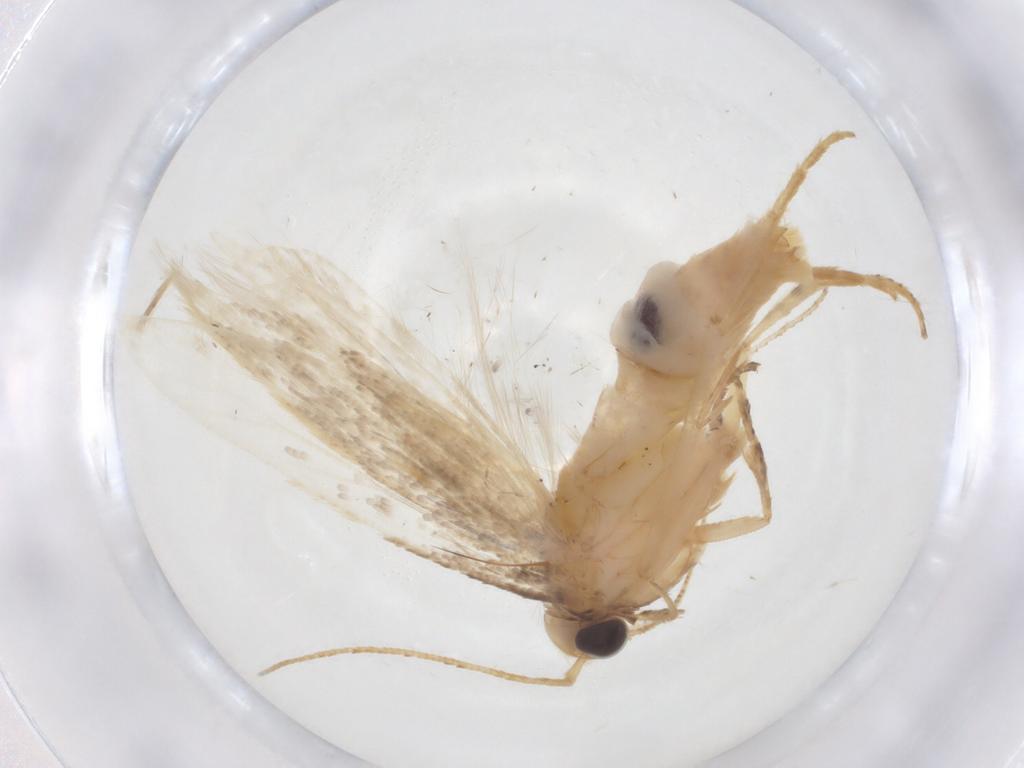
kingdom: Animalia
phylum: Arthropoda
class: Insecta
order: Lepidoptera
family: Gelechiidae
